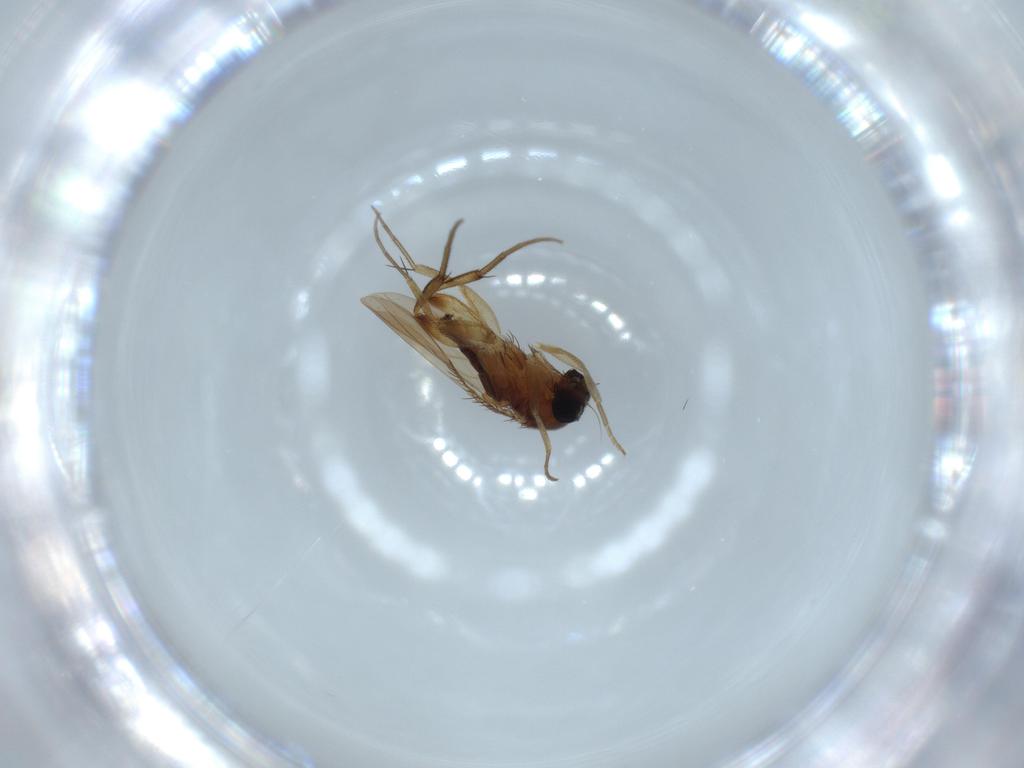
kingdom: Animalia
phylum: Arthropoda
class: Insecta
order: Diptera
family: Phoridae
